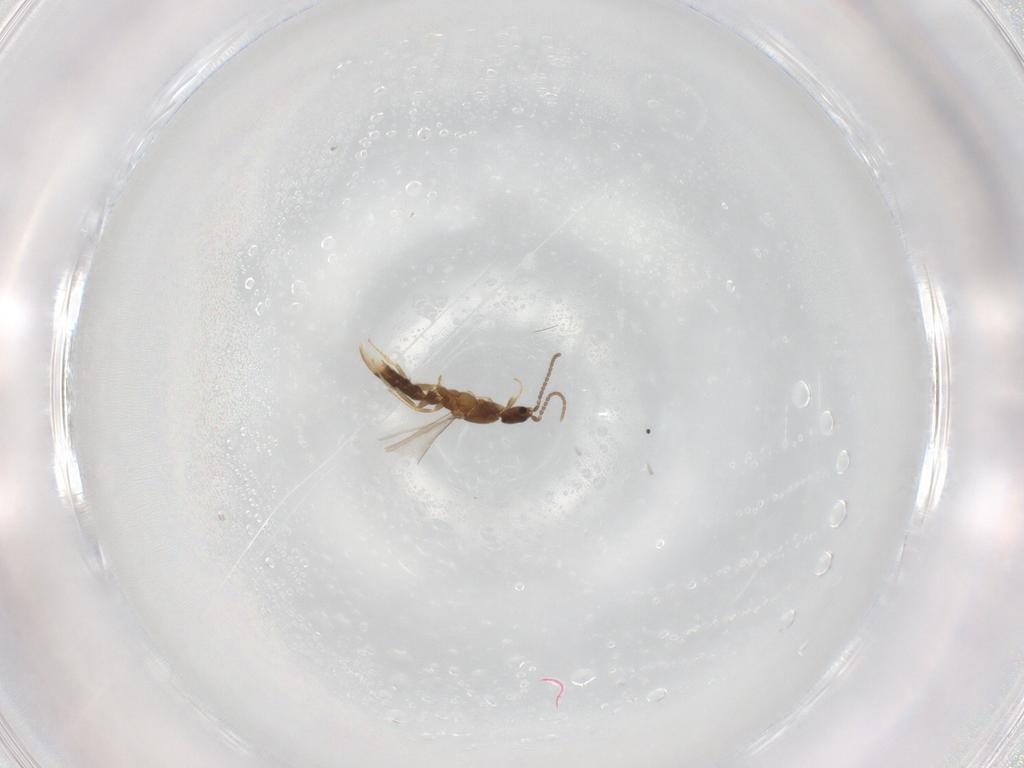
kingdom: Animalia
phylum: Arthropoda
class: Insecta
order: Hymenoptera
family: Formicidae
